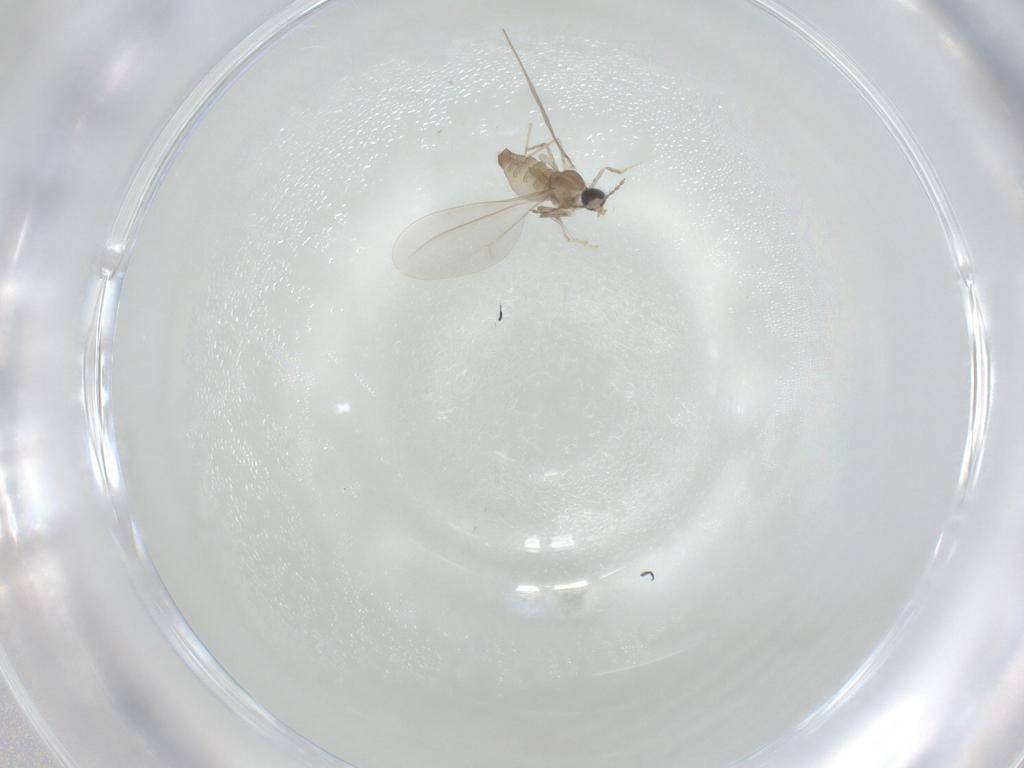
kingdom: Animalia
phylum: Arthropoda
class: Insecta
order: Diptera
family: Cecidomyiidae
